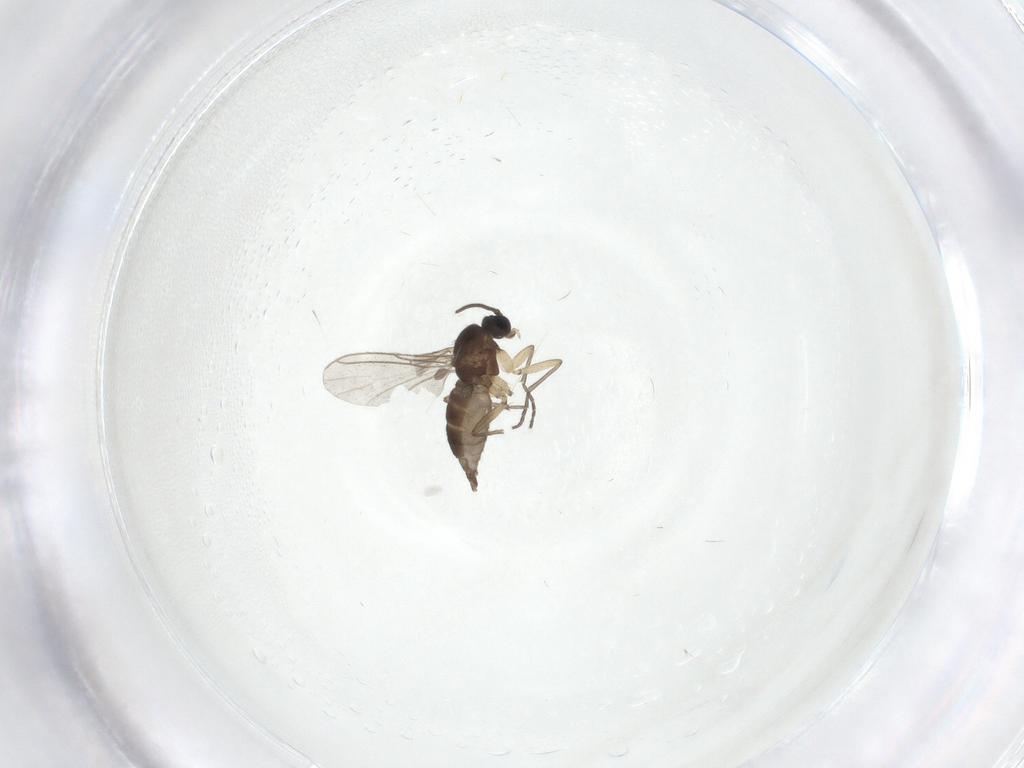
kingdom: Animalia
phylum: Arthropoda
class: Insecta
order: Diptera
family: Sciaridae
